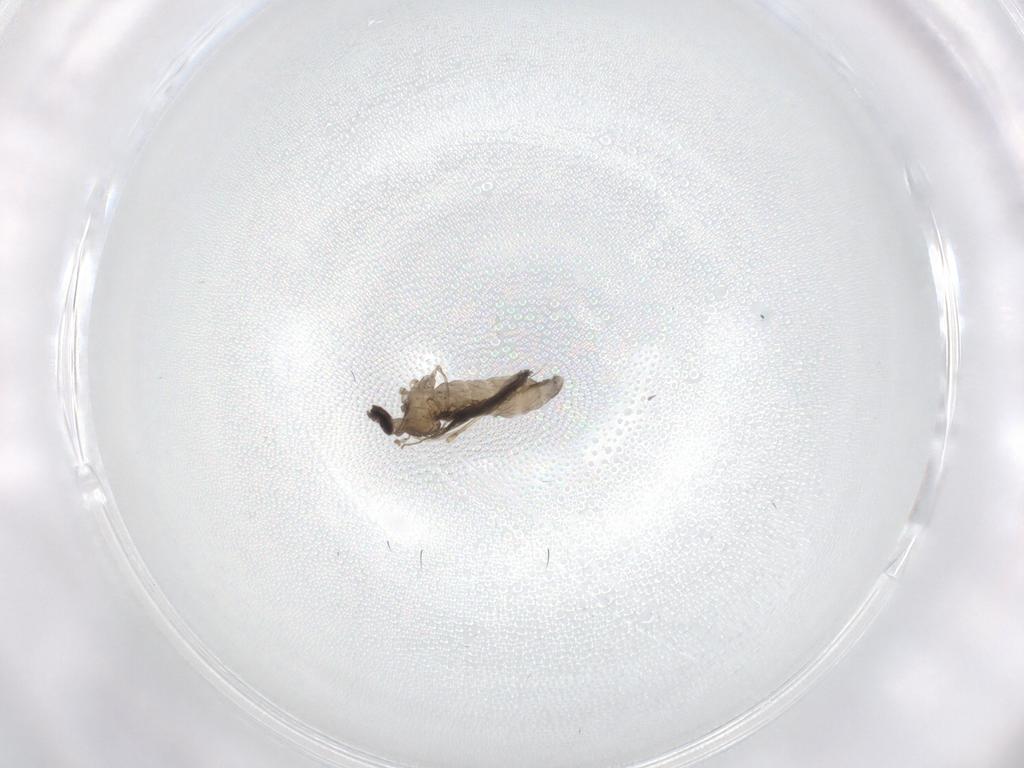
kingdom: Animalia
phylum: Arthropoda
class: Insecta
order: Diptera
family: Cecidomyiidae
